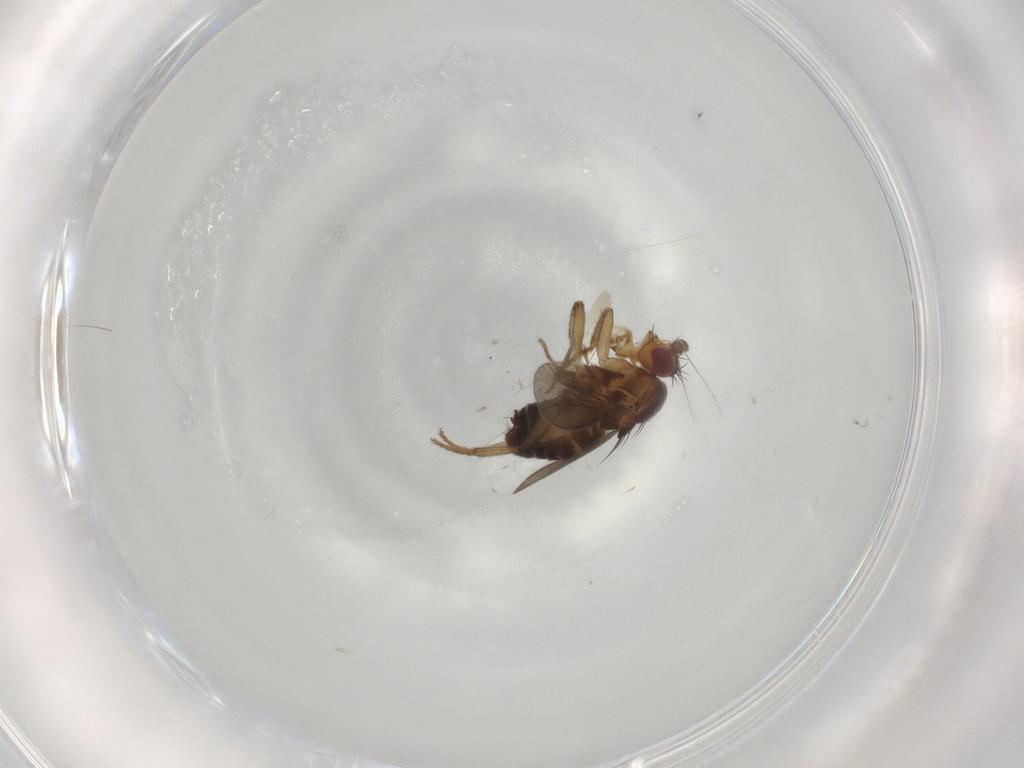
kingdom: Animalia
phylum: Arthropoda
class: Insecta
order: Diptera
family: Sphaeroceridae
